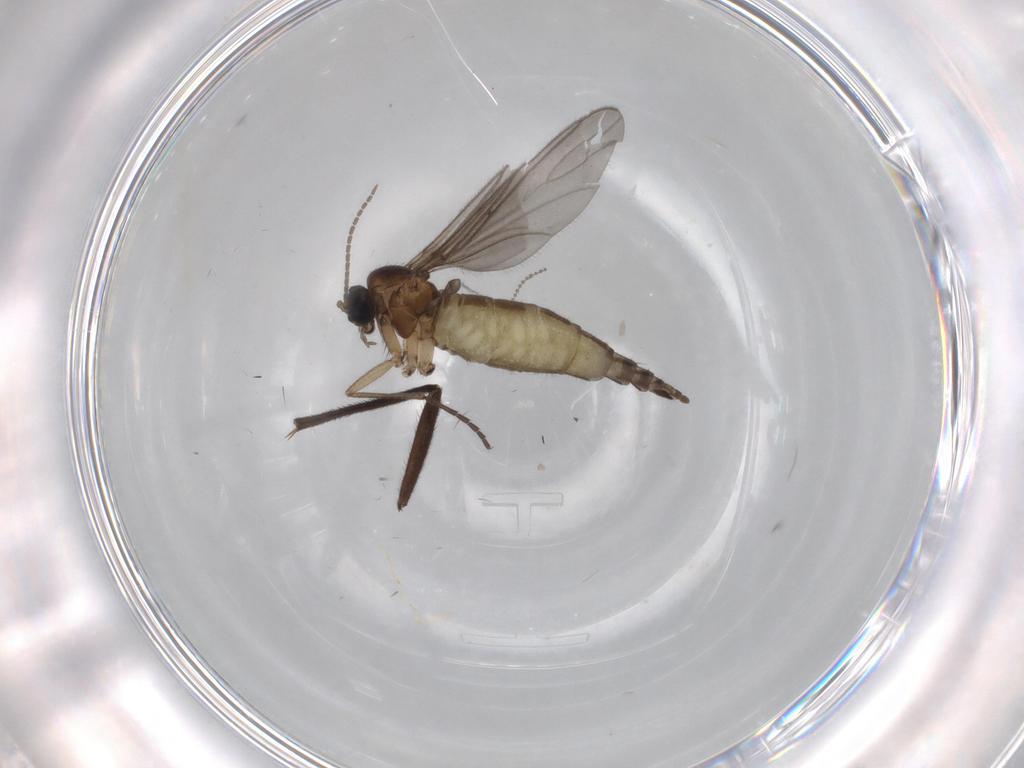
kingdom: Animalia
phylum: Arthropoda
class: Insecta
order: Diptera
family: Sciaridae
